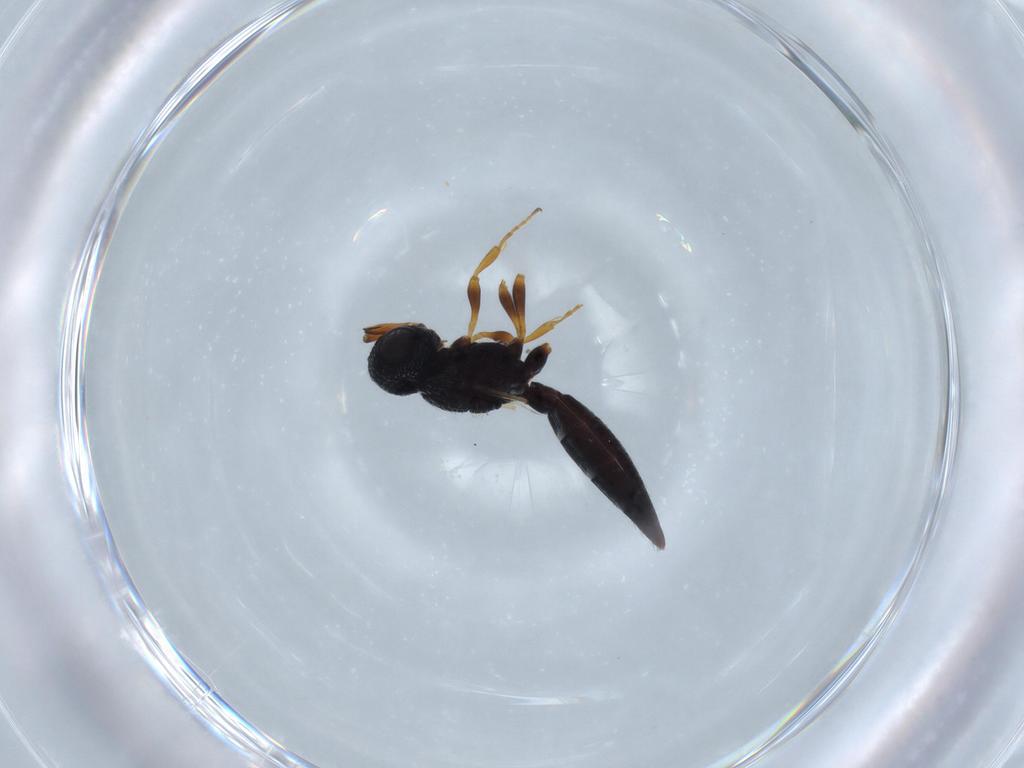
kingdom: Animalia
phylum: Arthropoda
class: Insecta
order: Hymenoptera
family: Scelionidae
